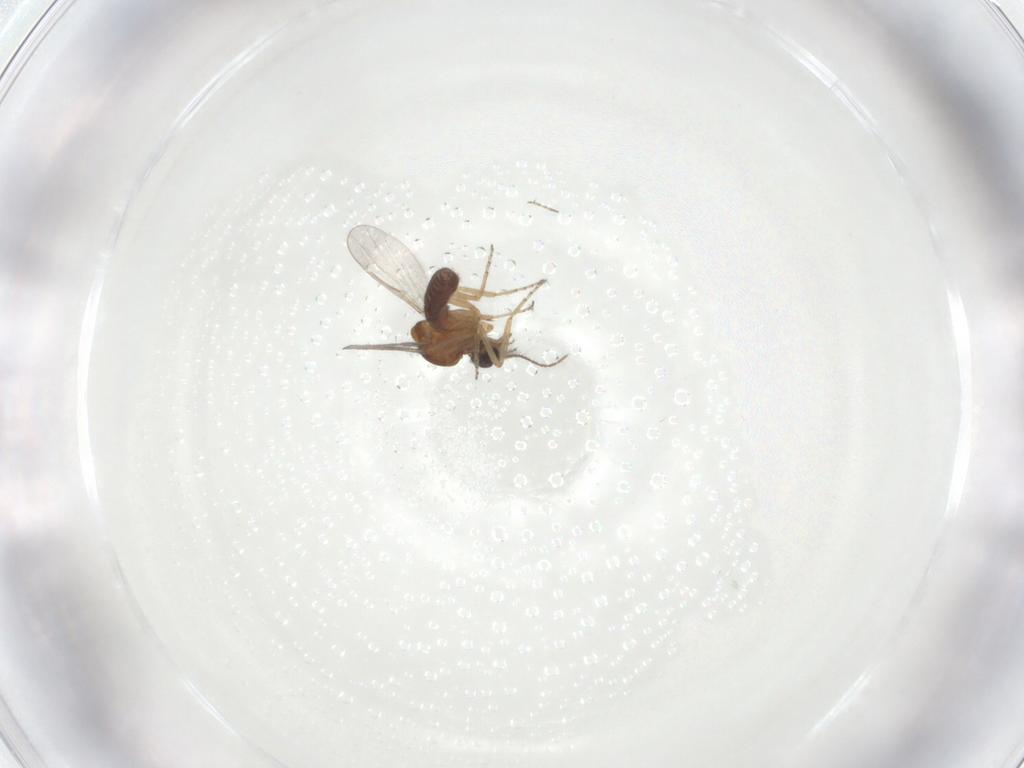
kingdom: Animalia
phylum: Arthropoda
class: Insecta
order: Diptera
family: Ceratopogonidae
